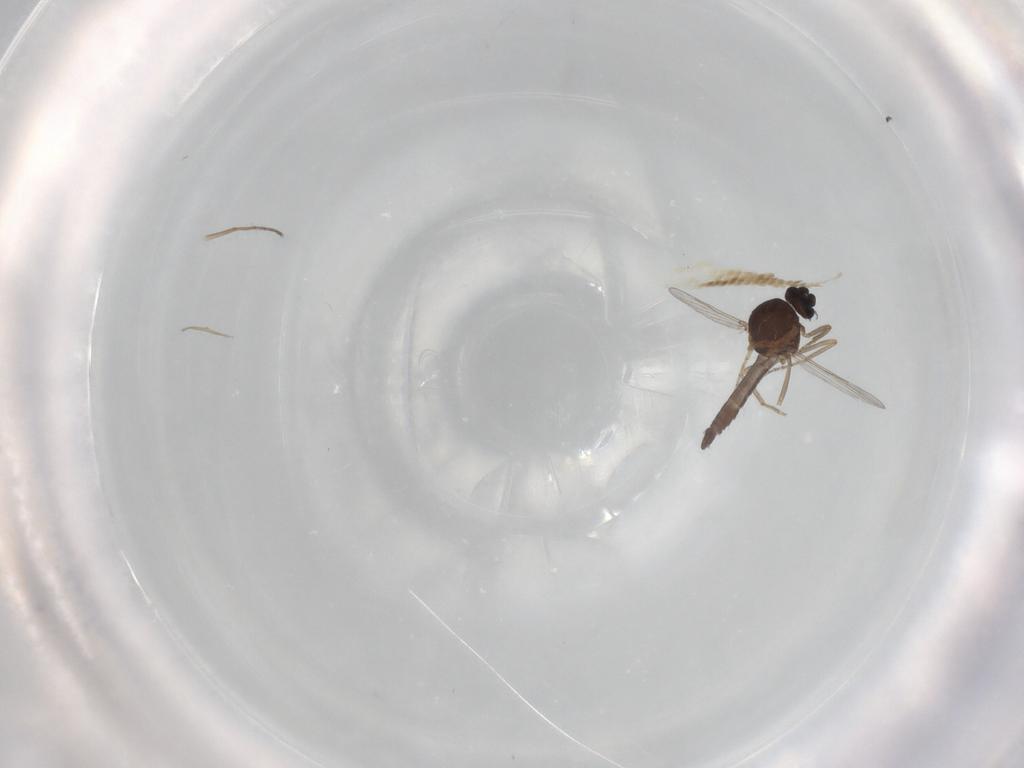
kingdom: Animalia
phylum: Arthropoda
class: Insecta
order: Diptera
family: Ceratopogonidae
